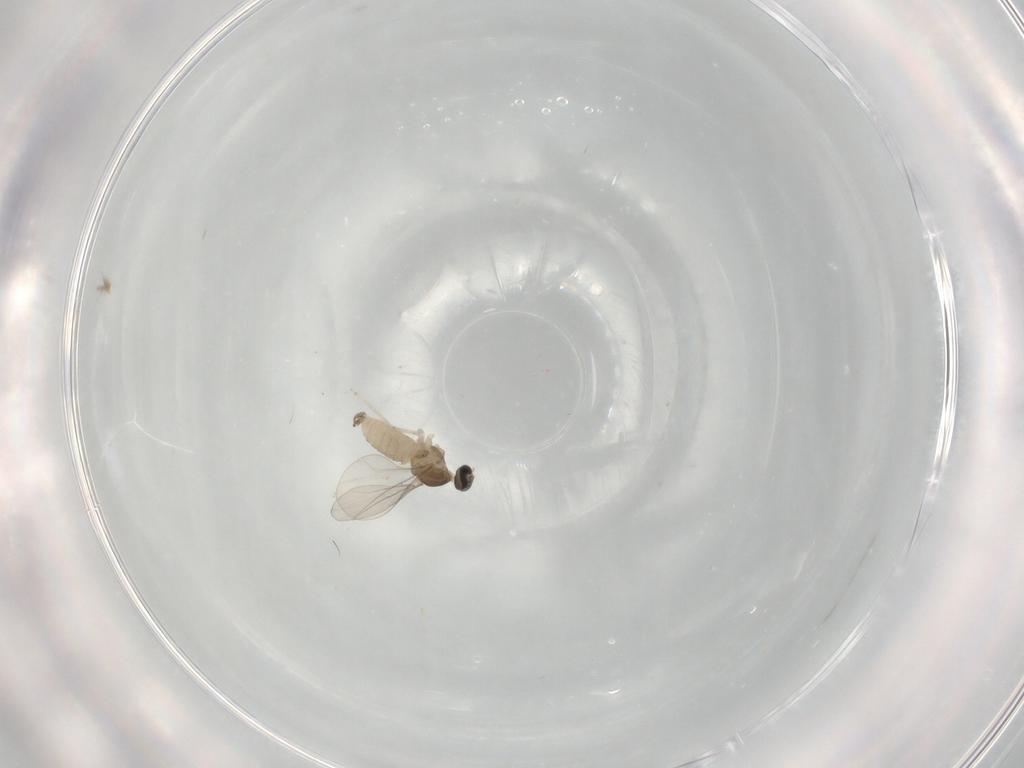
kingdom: Animalia
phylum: Arthropoda
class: Insecta
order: Diptera
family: Cecidomyiidae
